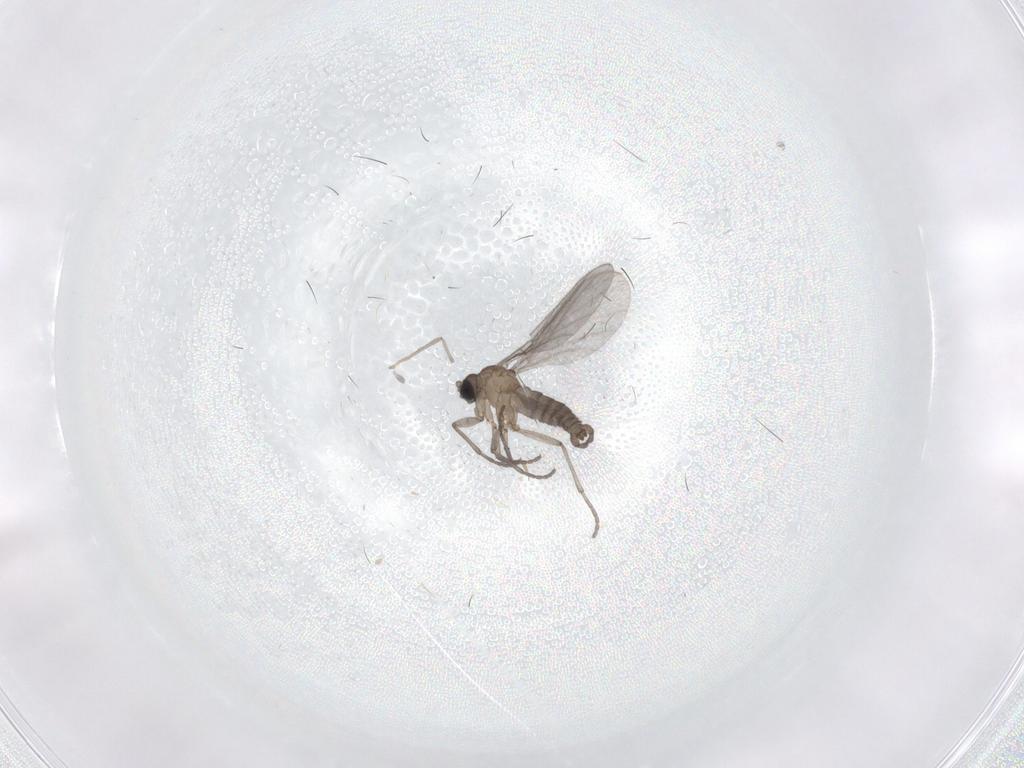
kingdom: Animalia
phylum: Arthropoda
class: Insecta
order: Diptera
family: Sciaridae
